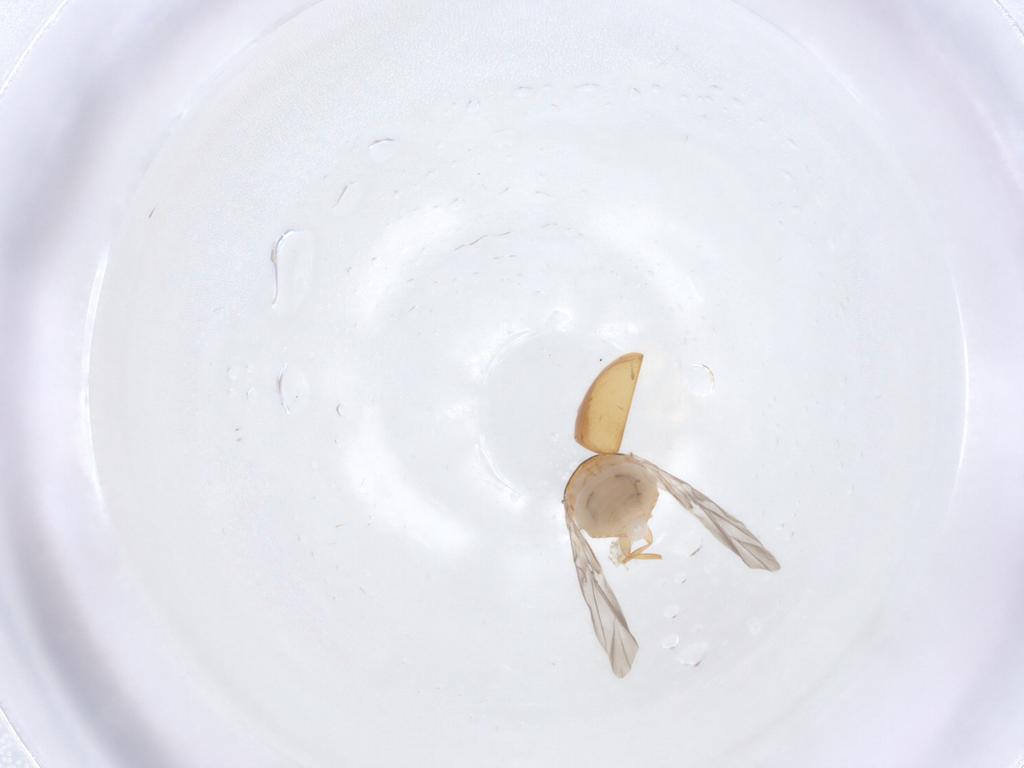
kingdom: Animalia
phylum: Arthropoda
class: Insecta
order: Coleoptera
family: Phalacridae
